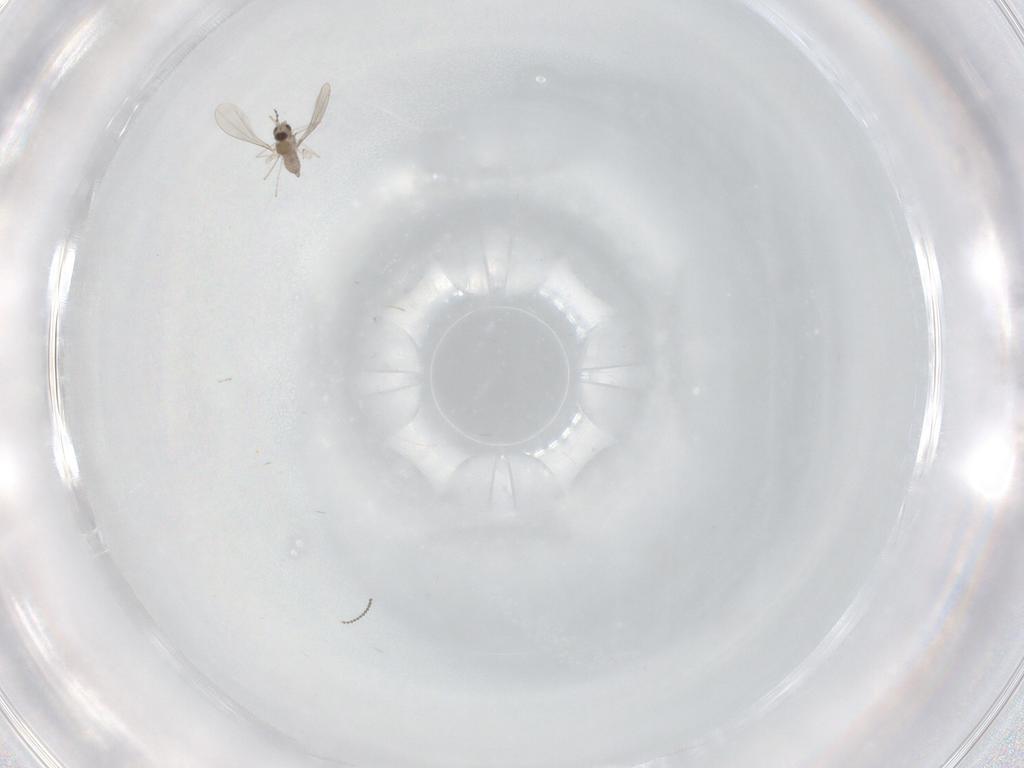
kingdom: Animalia
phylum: Arthropoda
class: Insecta
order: Diptera
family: Cecidomyiidae
